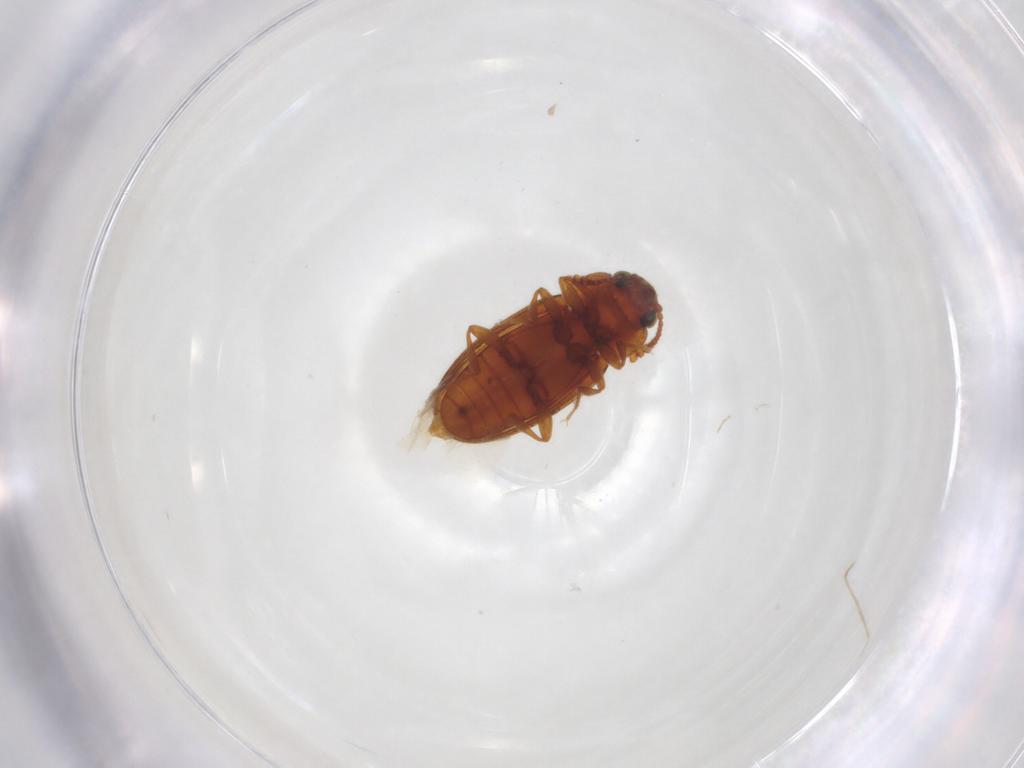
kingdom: Animalia
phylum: Arthropoda
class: Insecta
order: Coleoptera
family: Erotylidae
